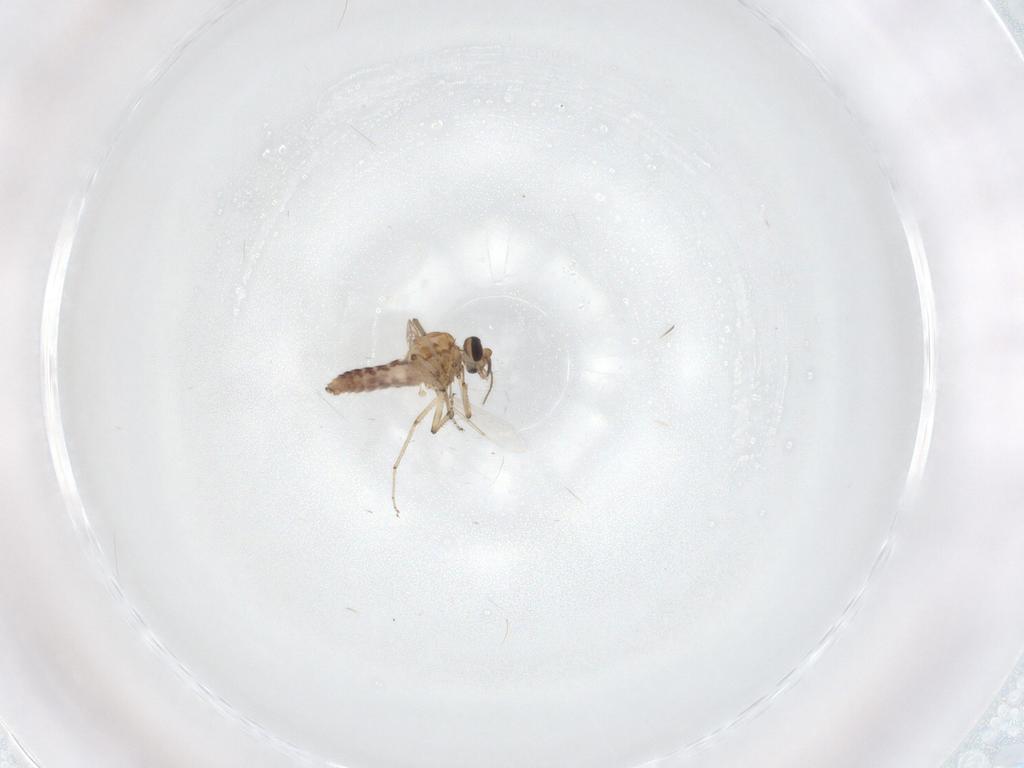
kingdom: Animalia
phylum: Arthropoda
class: Insecta
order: Diptera
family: Ceratopogonidae
